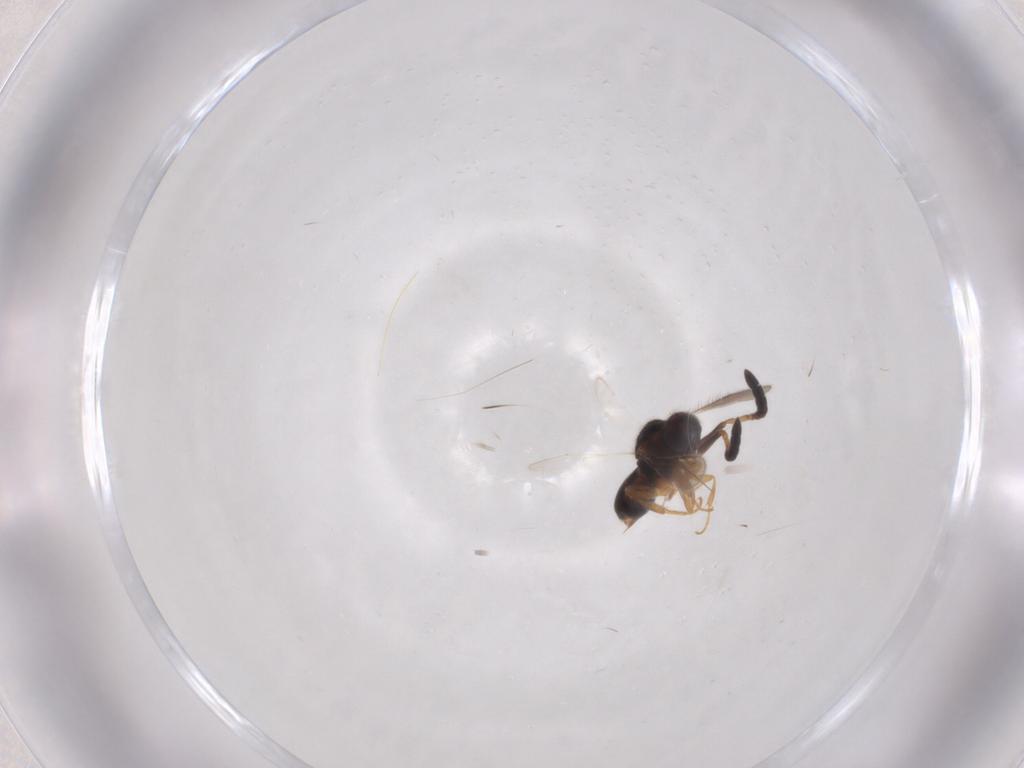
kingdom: Animalia
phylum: Arthropoda
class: Insecta
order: Hymenoptera
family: Ceraphronidae
